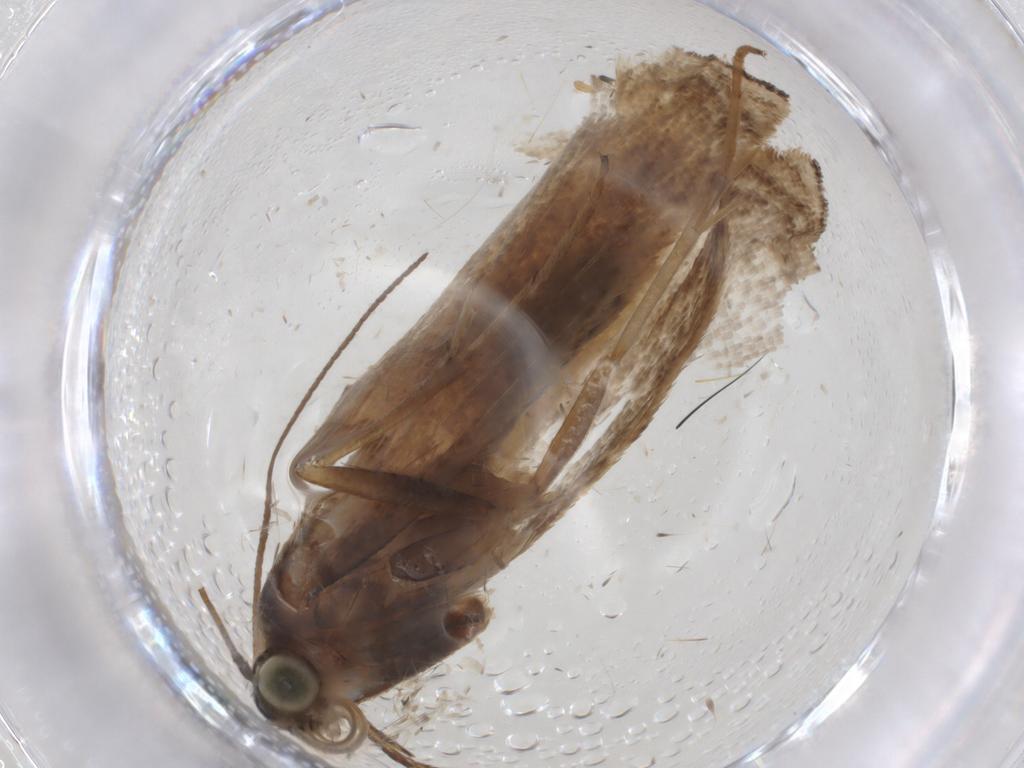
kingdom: Animalia
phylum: Arthropoda
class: Insecta
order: Lepidoptera
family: Crambidae
